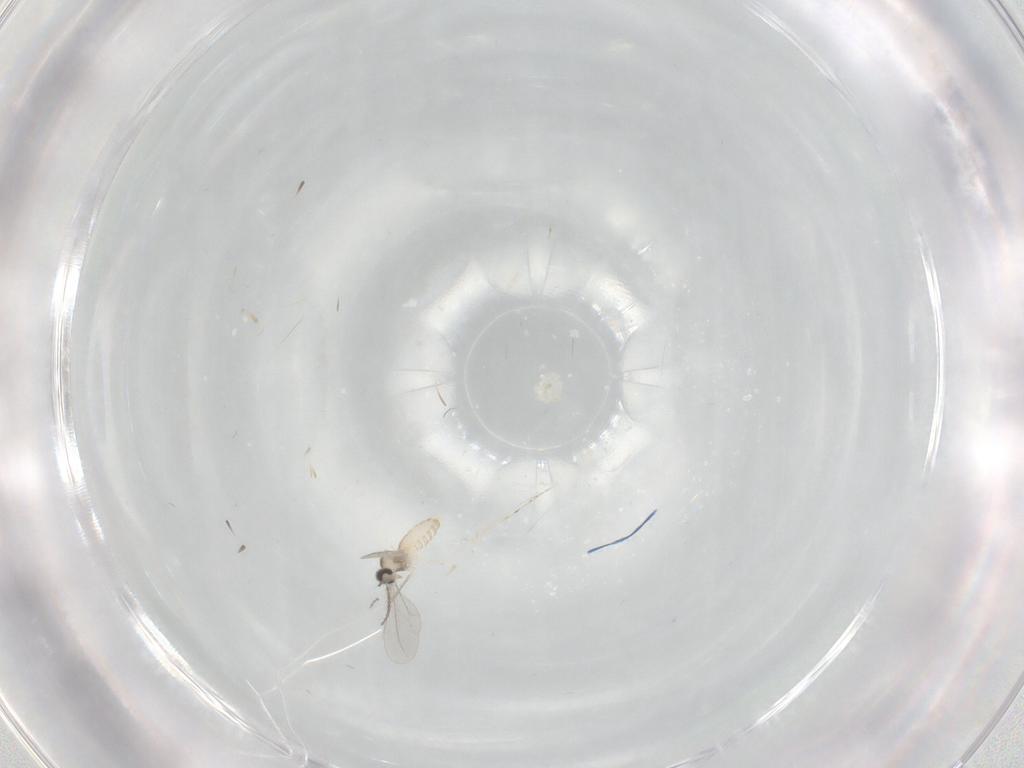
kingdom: Animalia
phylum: Arthropoda
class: Insecta
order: Diptera
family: Cecidomyiidae
